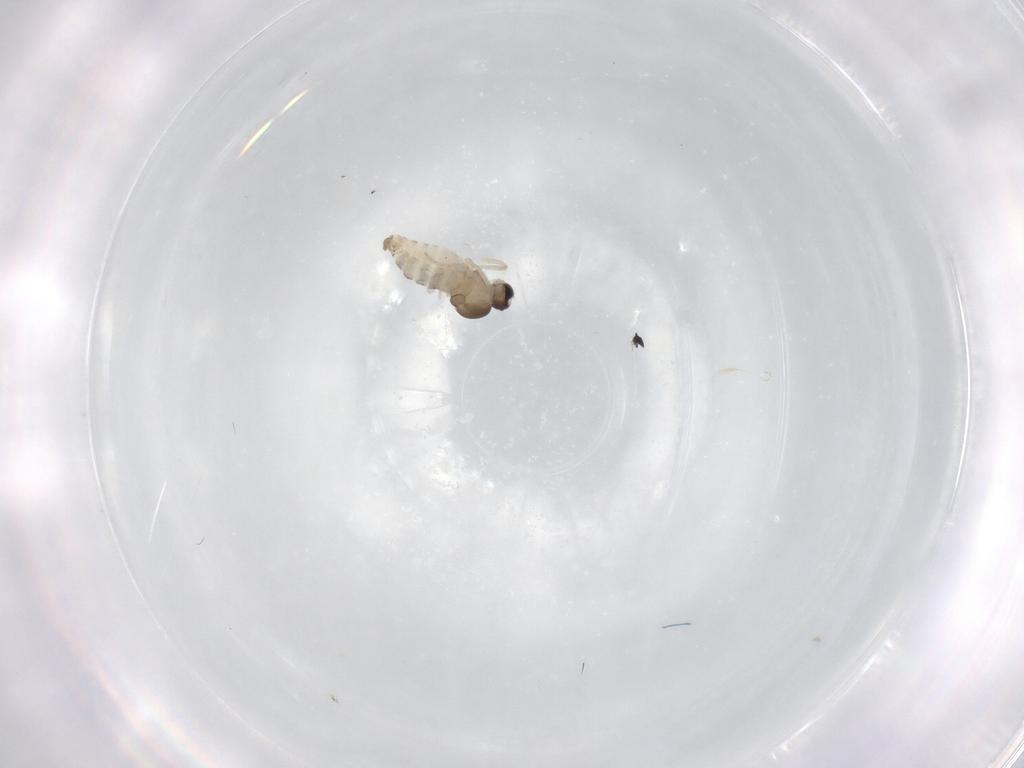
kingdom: Animalia
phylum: Arthropoda
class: Insecta
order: Diptera
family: Cecidomyiidae
